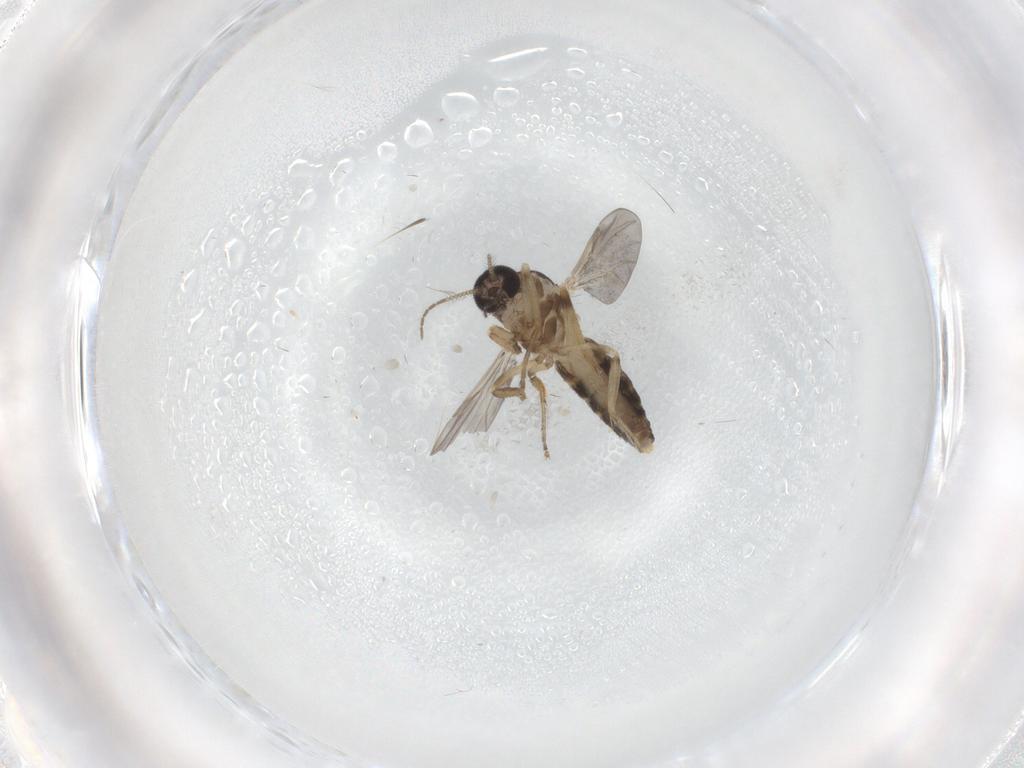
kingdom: Animalia
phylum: Arthropoda
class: Insecta
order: Diptera
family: Ceratopogonidae
